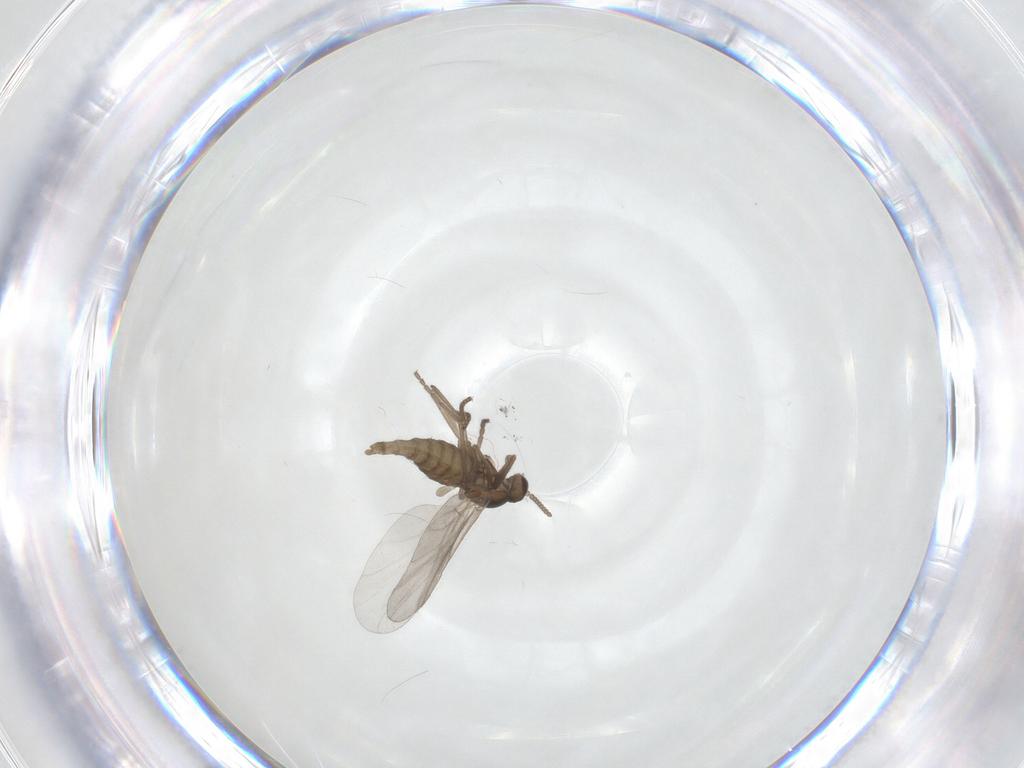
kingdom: Animalia
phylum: Arthropoda
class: Insecta
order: Diptera
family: Cecidomyiidae
